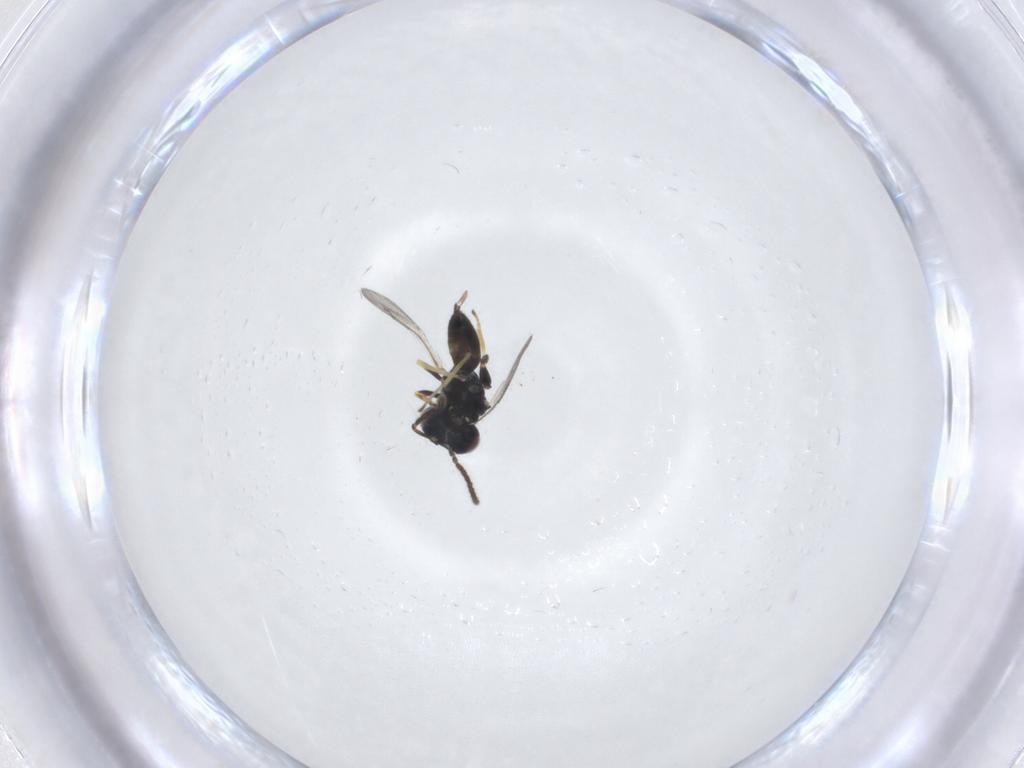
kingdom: Animalia
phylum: Arthropoda
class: Insecta
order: Hymenoptera
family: Pteromalidae
